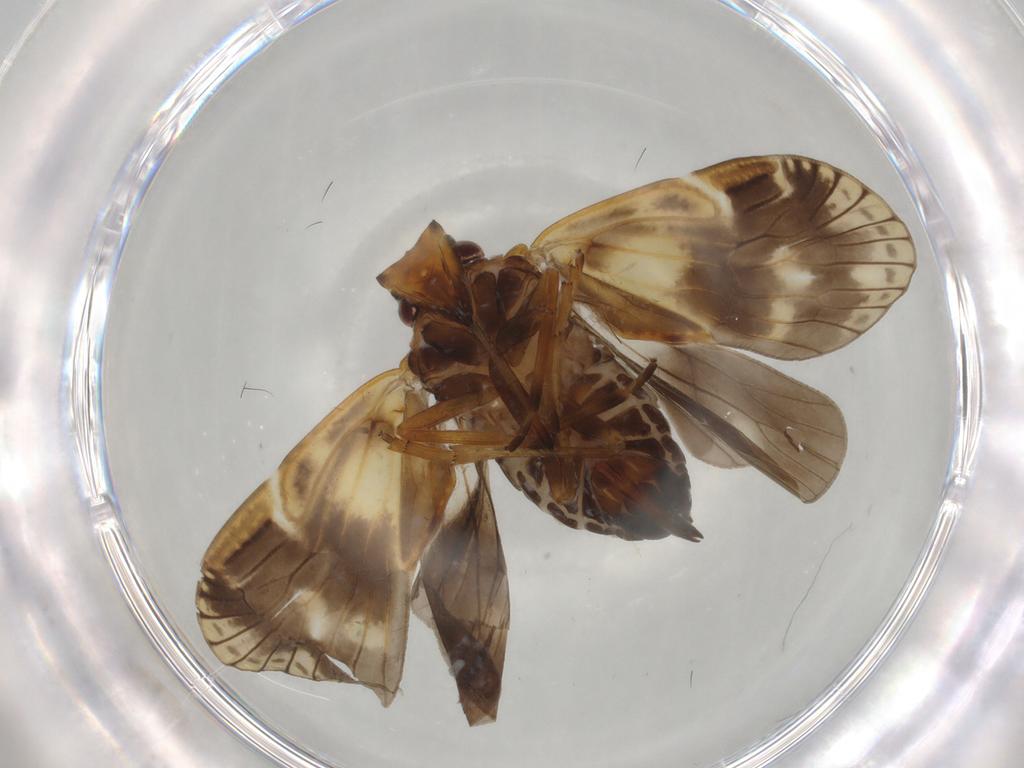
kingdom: Animalia
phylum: Arthropoda
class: Insecta
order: Hemiptera
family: Cixiidae
